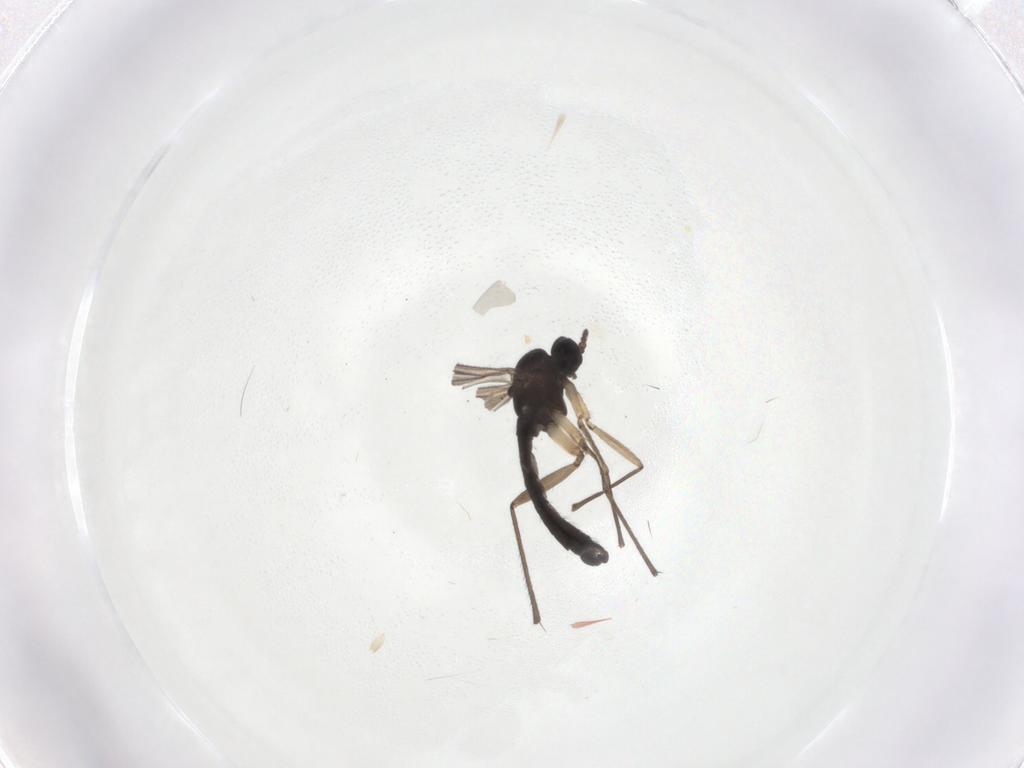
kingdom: Animalia
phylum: Arthropoda
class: Insecta
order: Diptera
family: Sciaridae
